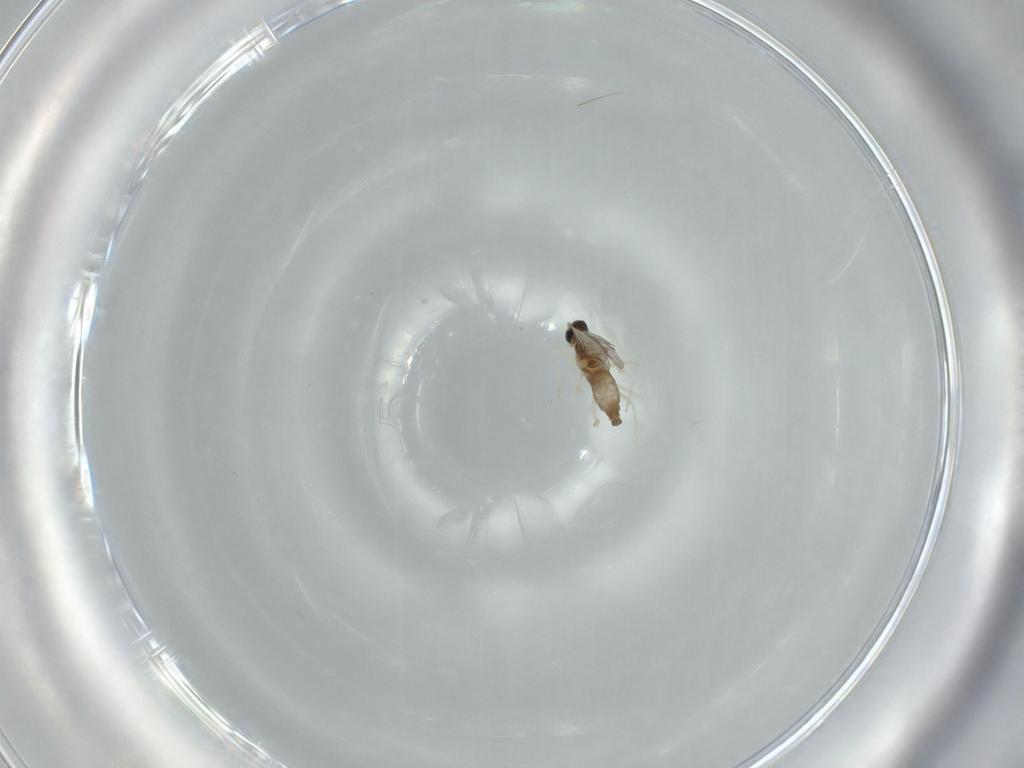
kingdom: Animalia
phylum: Arthropoda
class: Insecta
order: Diptera
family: Cecidomyiidae
